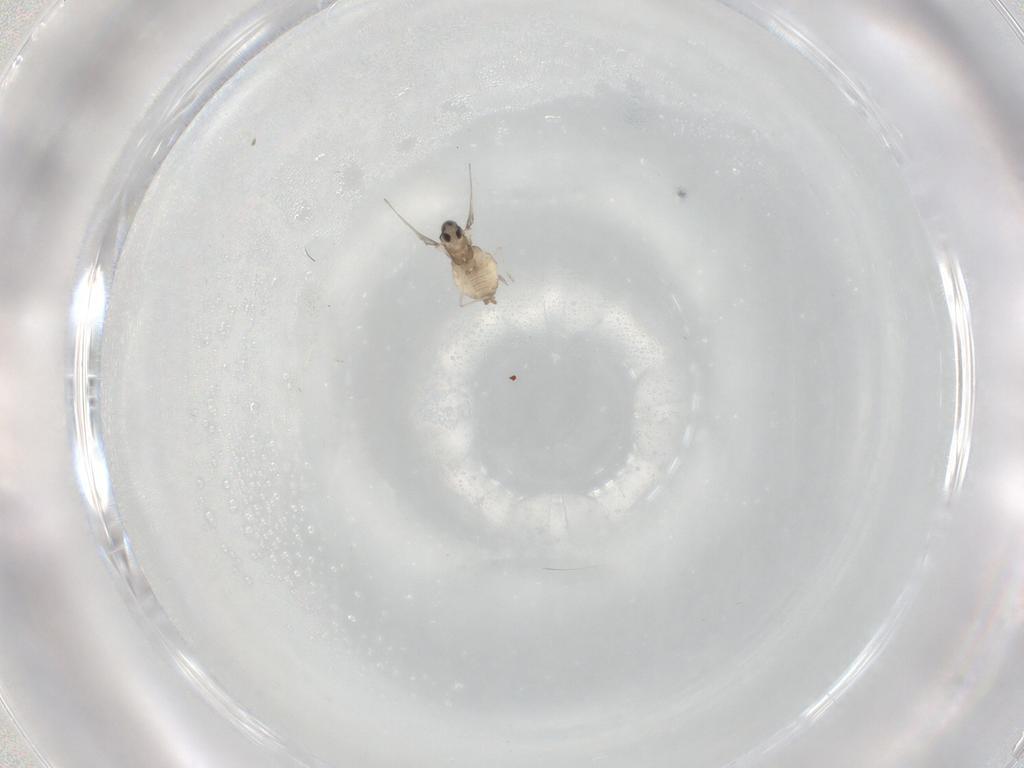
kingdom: Animalia
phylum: Arthropoda
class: Insecta
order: Diptera
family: Cecidomyiidae
